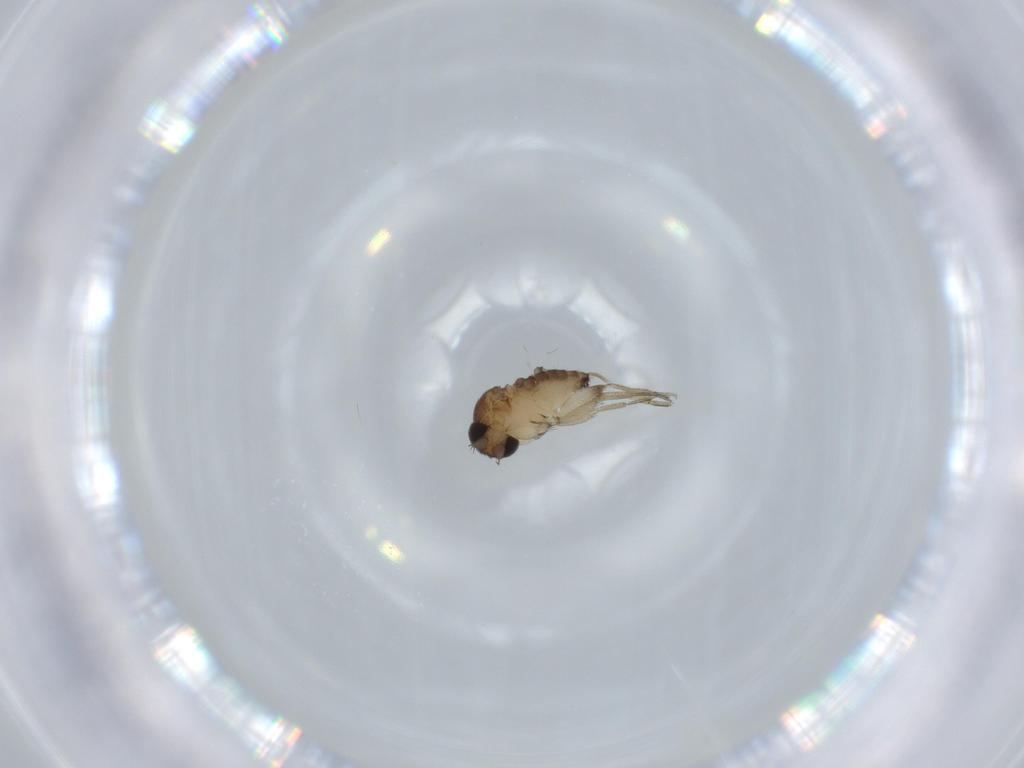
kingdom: Animalia
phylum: Arthropoda
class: Insecta
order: Diptera
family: Phoridae
